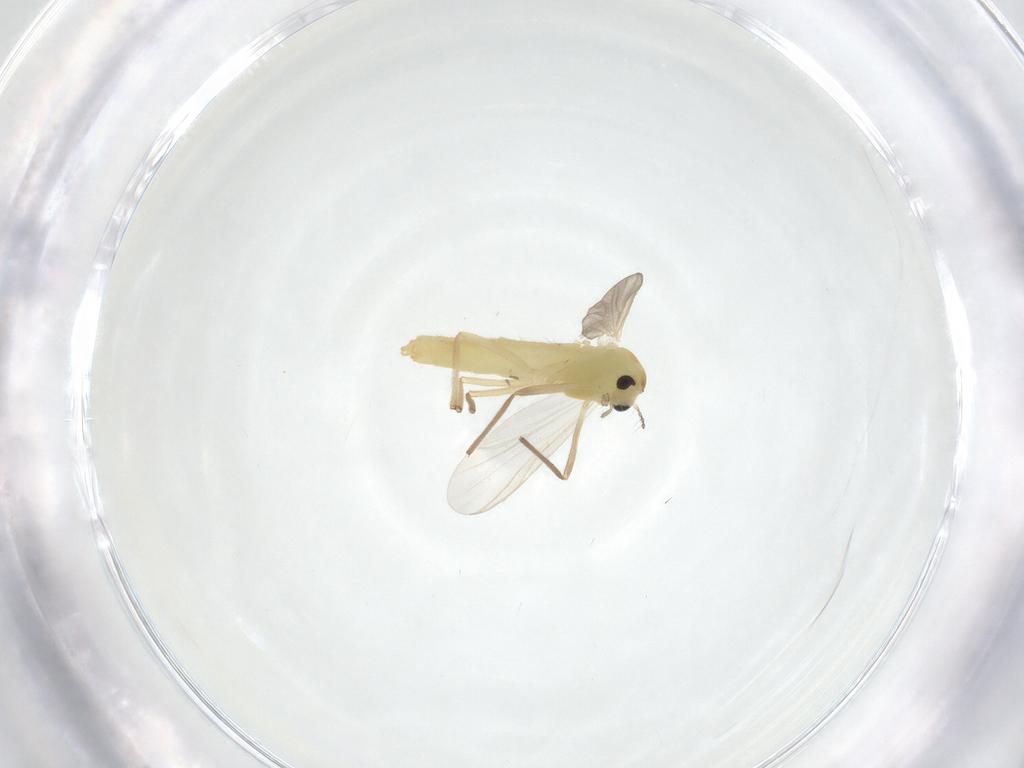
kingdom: Animalia
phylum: Arthropoda
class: Insecta
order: Diptera
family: Chironomidae
